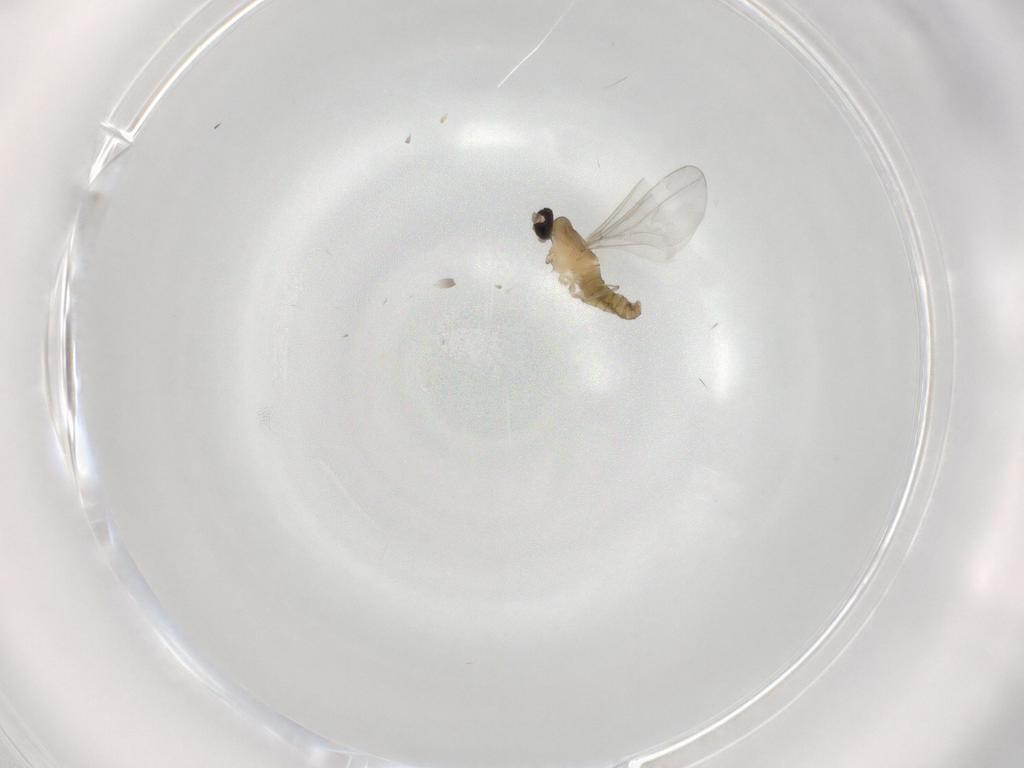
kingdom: Animalia
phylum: Arthropoda
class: Insecta
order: Diptera
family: Cecidomyiidae
